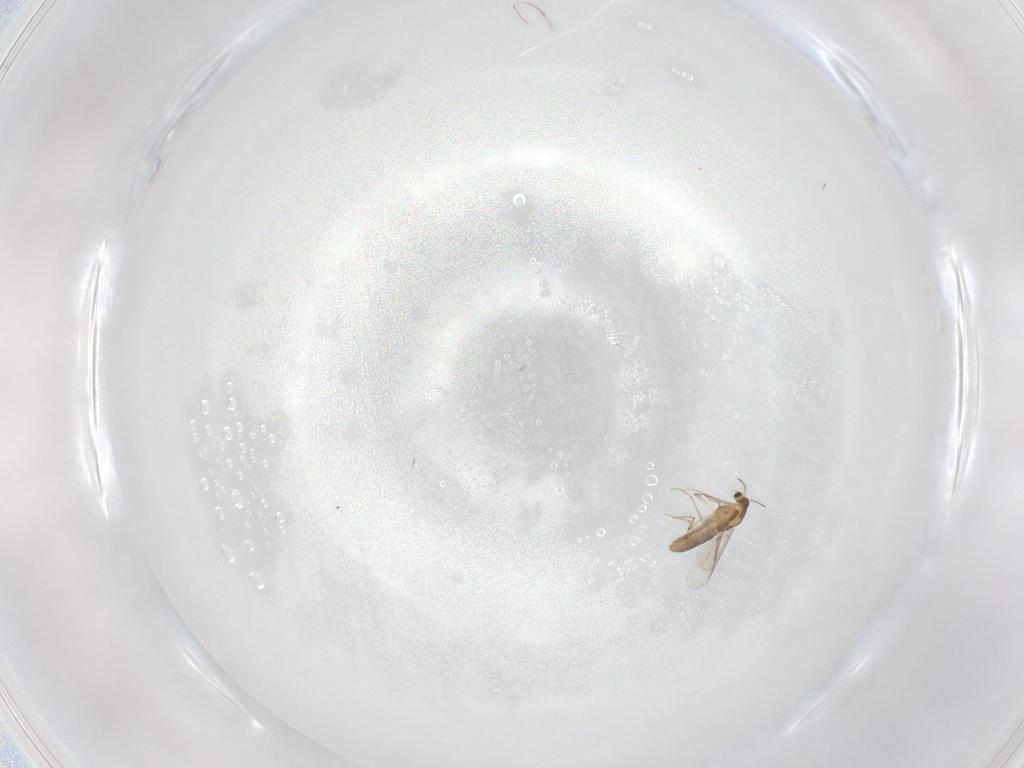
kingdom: Animalia
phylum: Arthropoda
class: Insecta
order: Diptera
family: Chironomidae
